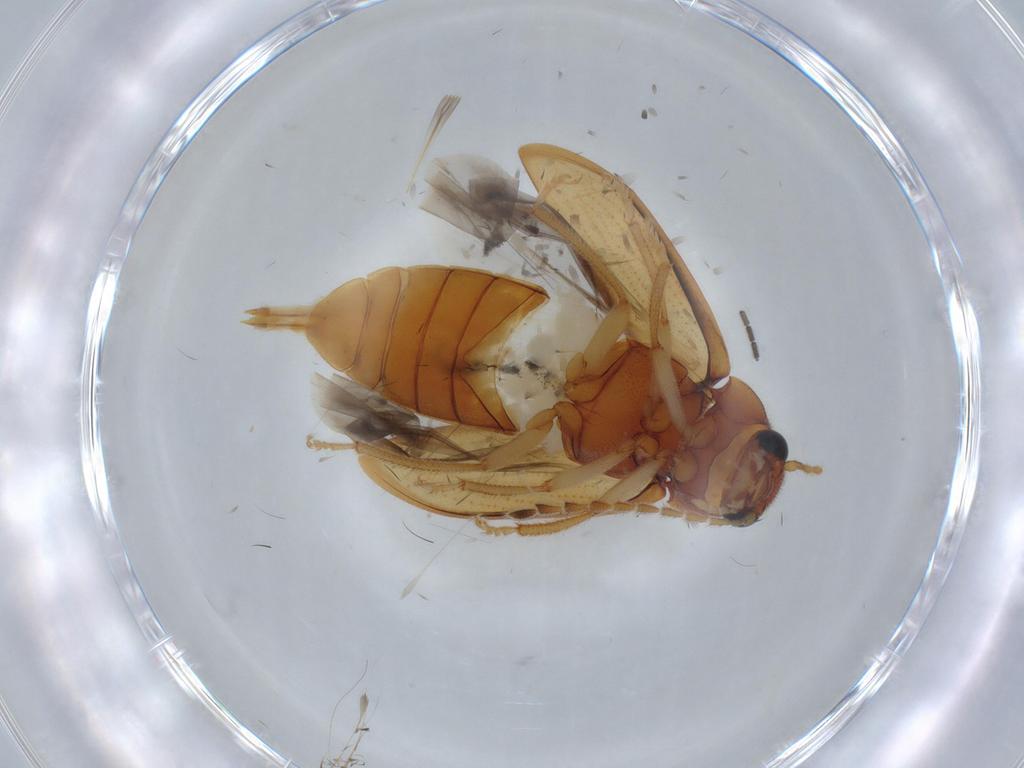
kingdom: Animalia
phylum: Arthropoda
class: Insecta
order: Coleoptera
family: Ptilodactylidae
